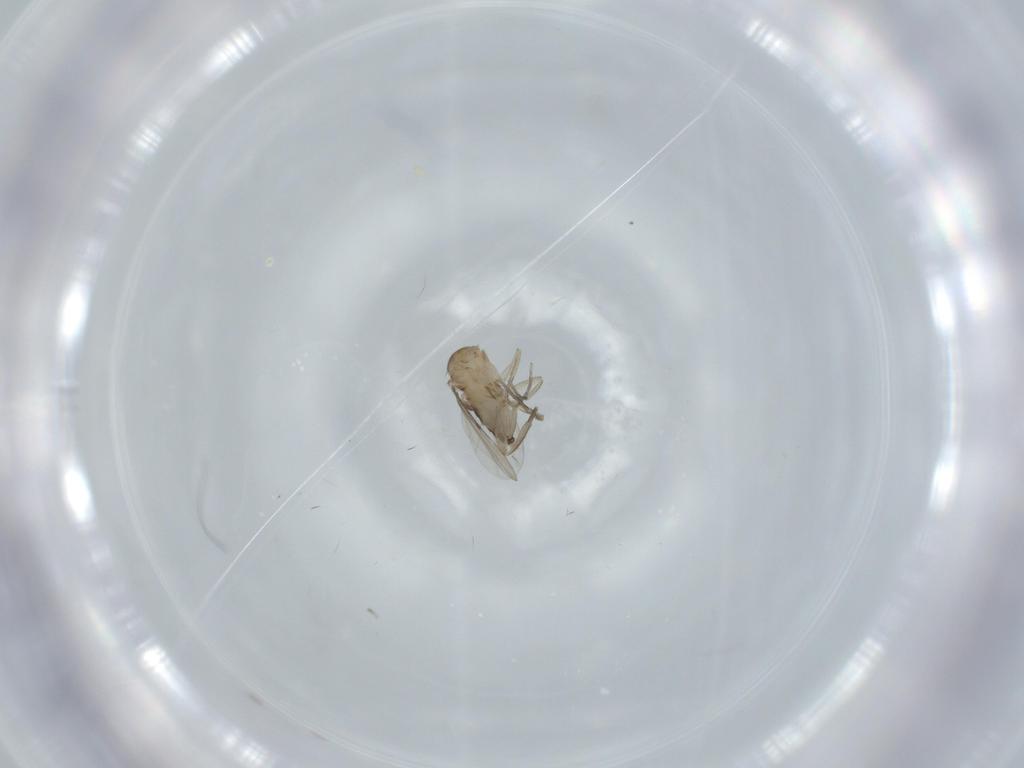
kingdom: Animalia
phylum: Arthropoda
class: Insecta
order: Diptera
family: Phoridae
